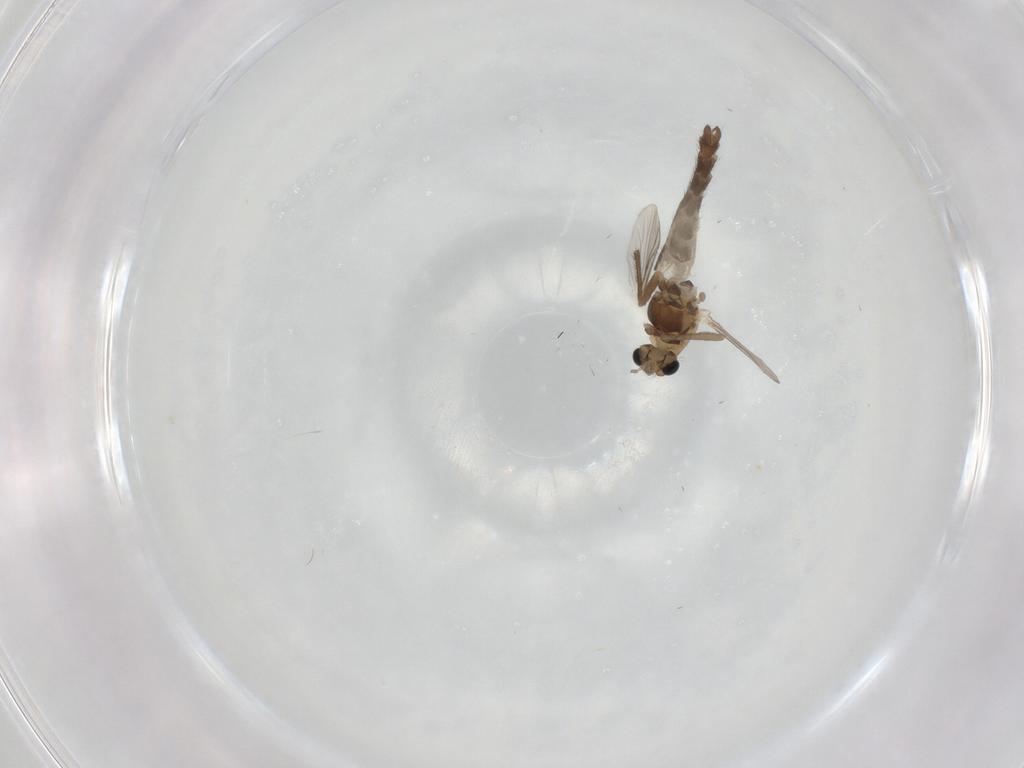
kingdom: Animalia
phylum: Arthropoda
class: Insecta
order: Diptera
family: Chironomidae
